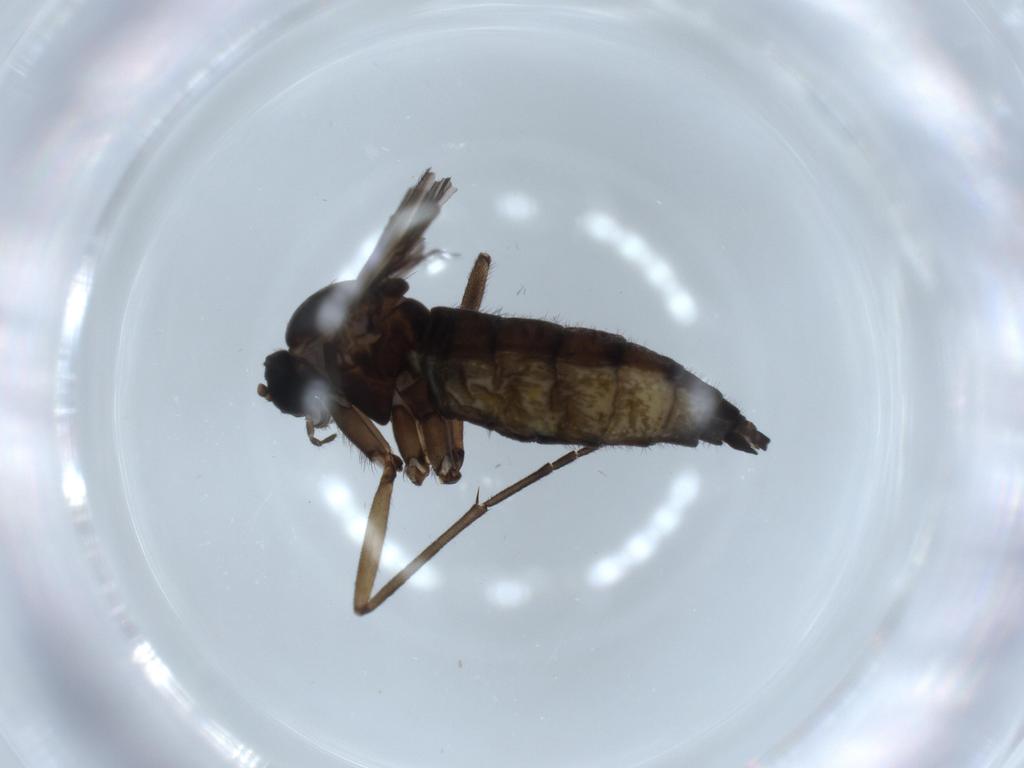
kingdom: Animalia
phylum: Arthropoda
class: Insecta
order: Diptera
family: Sciaridae
